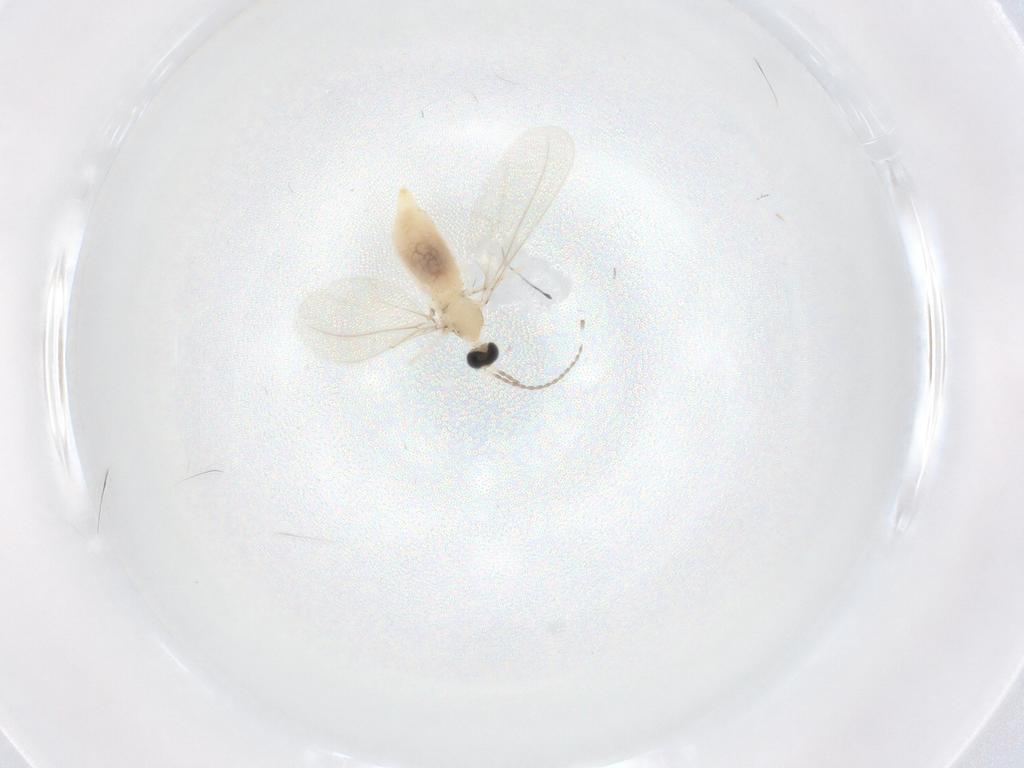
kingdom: Animalia
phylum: Arthropoda
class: Insecta
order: Diptera
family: Cecidomyiidae
